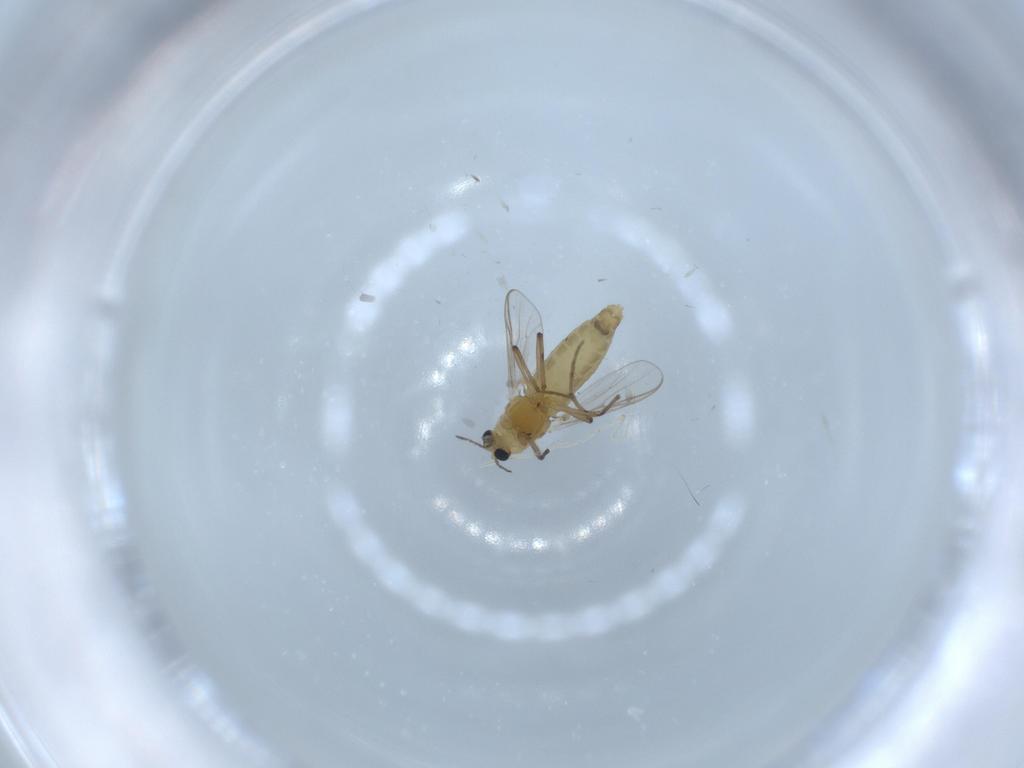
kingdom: Animalia
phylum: Arthropoda
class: Insecta
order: Diptera
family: Chironomidae
